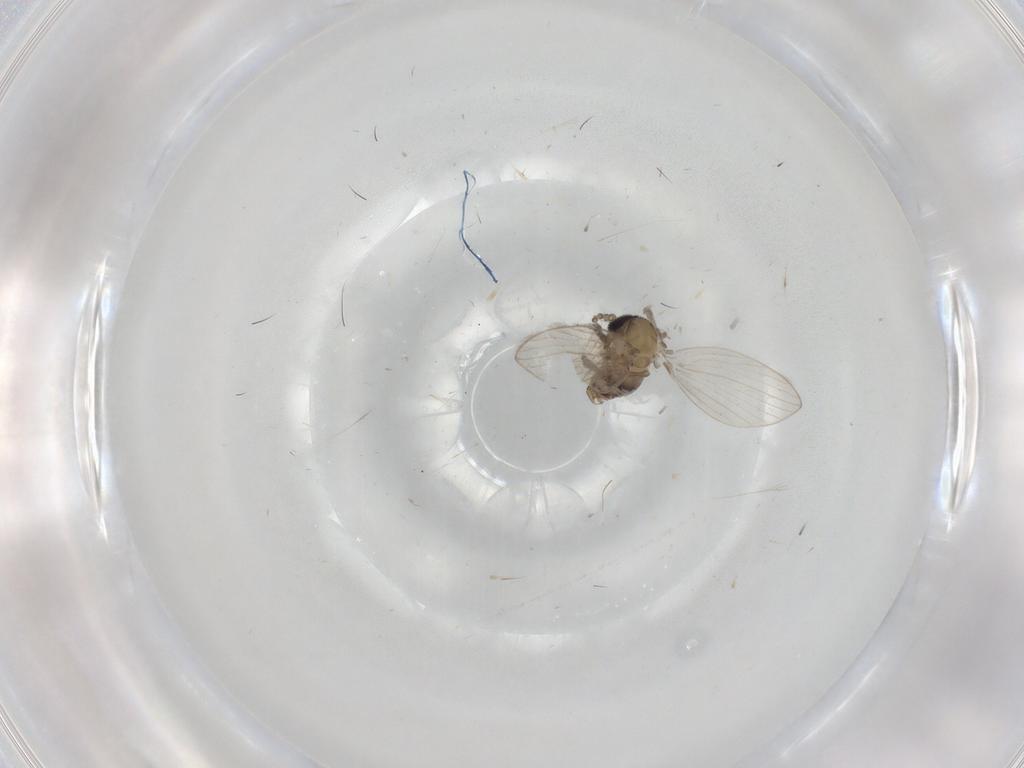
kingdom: Animalia
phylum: Arthropoda
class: Insecta
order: Diptera
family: Psychodidae
